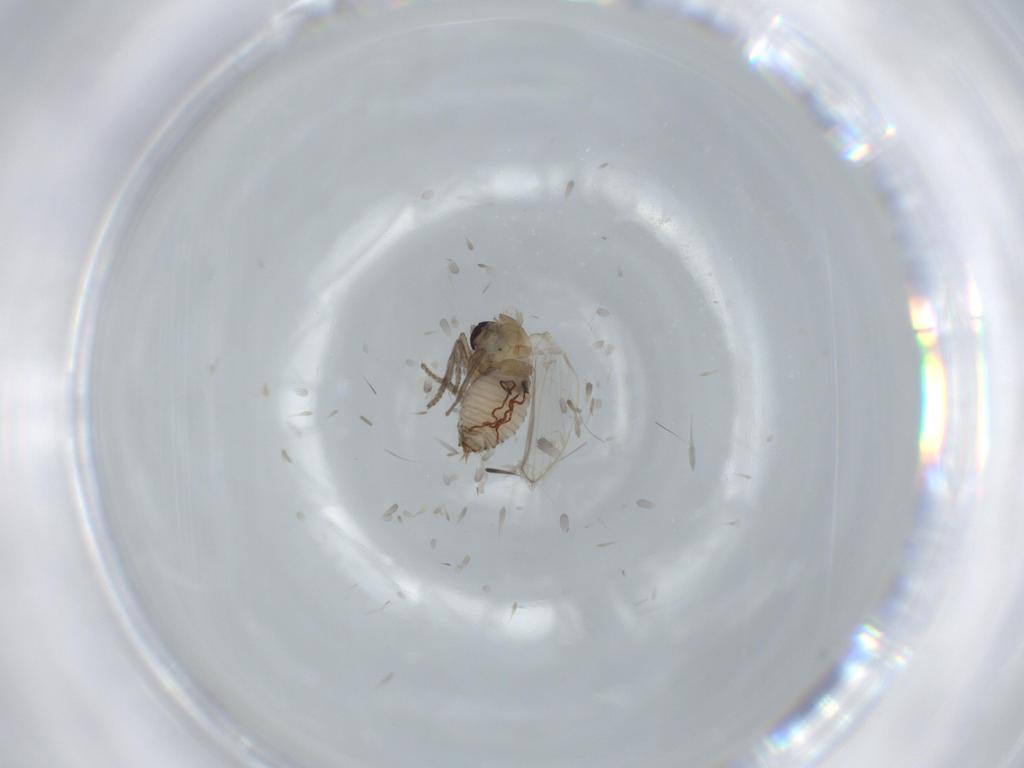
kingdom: Animalia
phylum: Arthropoda
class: Insecta
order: Diptera
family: Psychodidae
